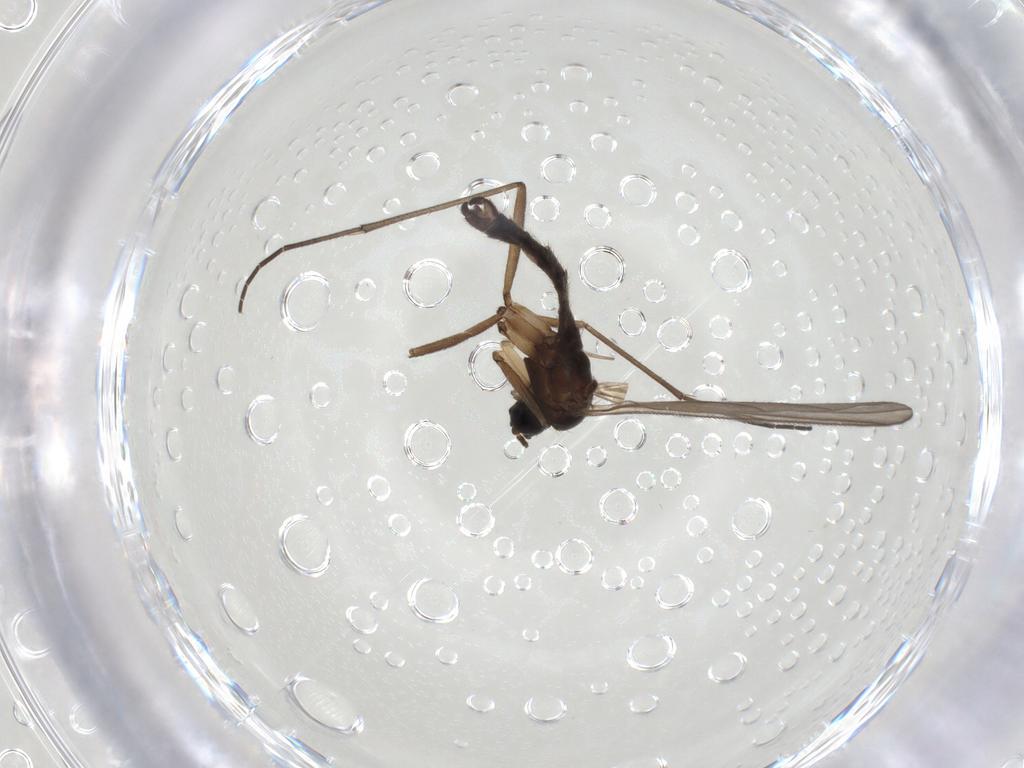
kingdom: Animalia
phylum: Arthropoda
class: Insecta
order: Diptera
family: Sciaridae
